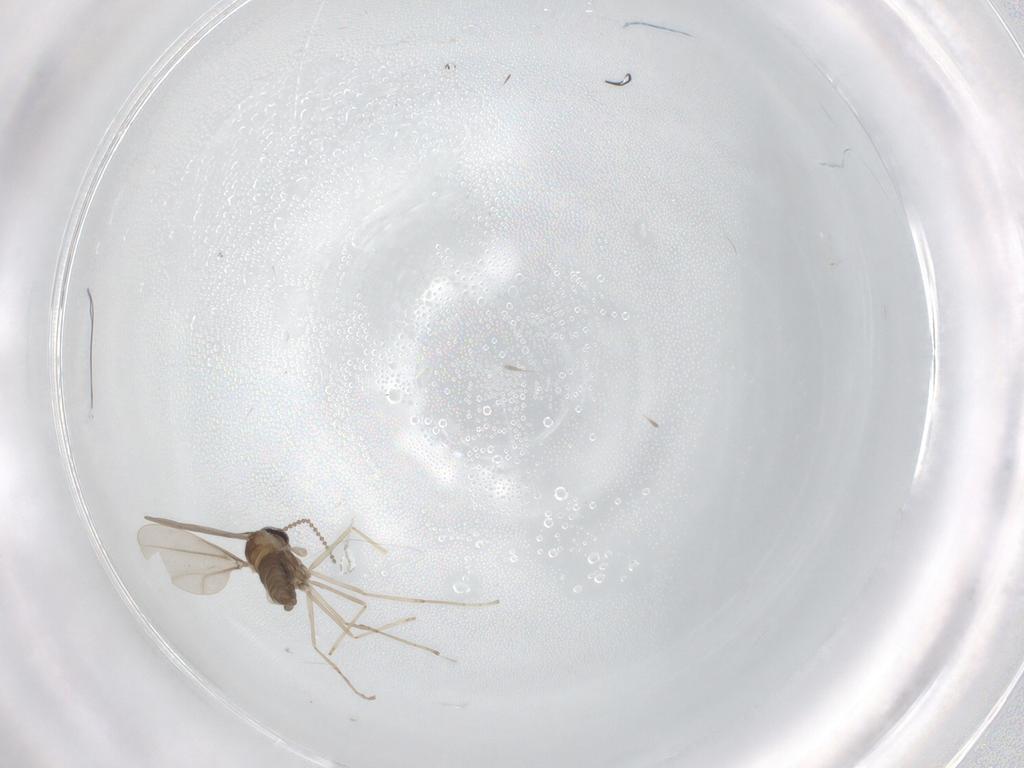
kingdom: Animalia
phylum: Arthropoda
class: Insecta
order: Diptera
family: Cecidomyiidae
